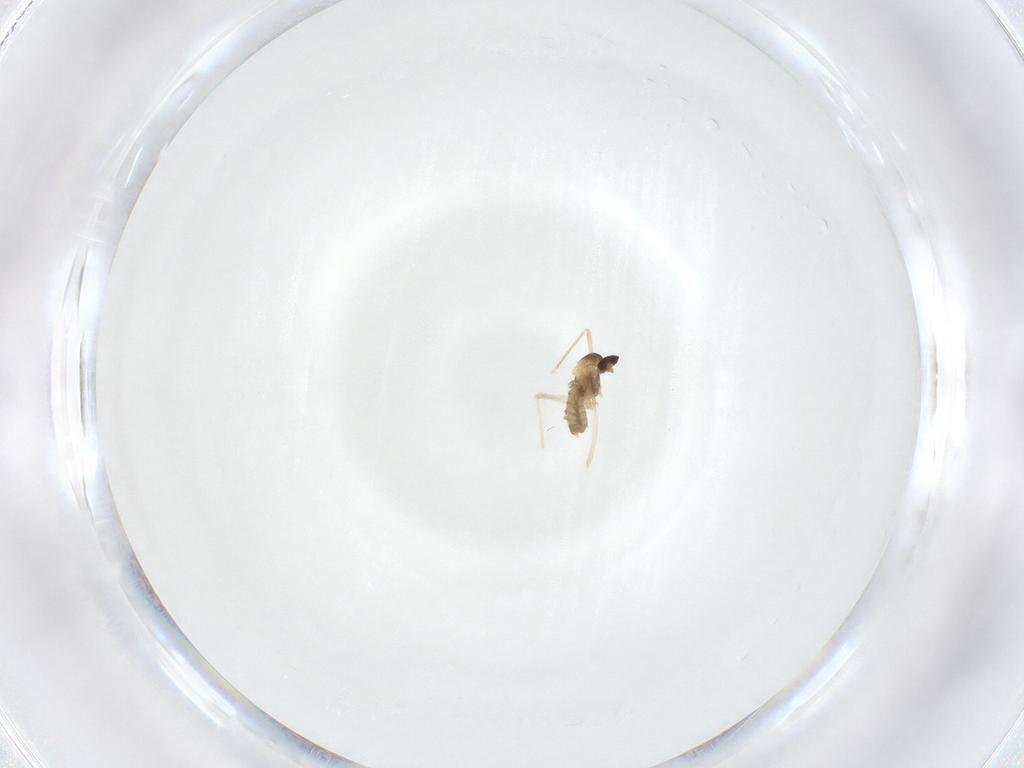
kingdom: Animalia
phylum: Arthropoda
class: Insecta
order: Diptera
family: Cecidomyiidae
